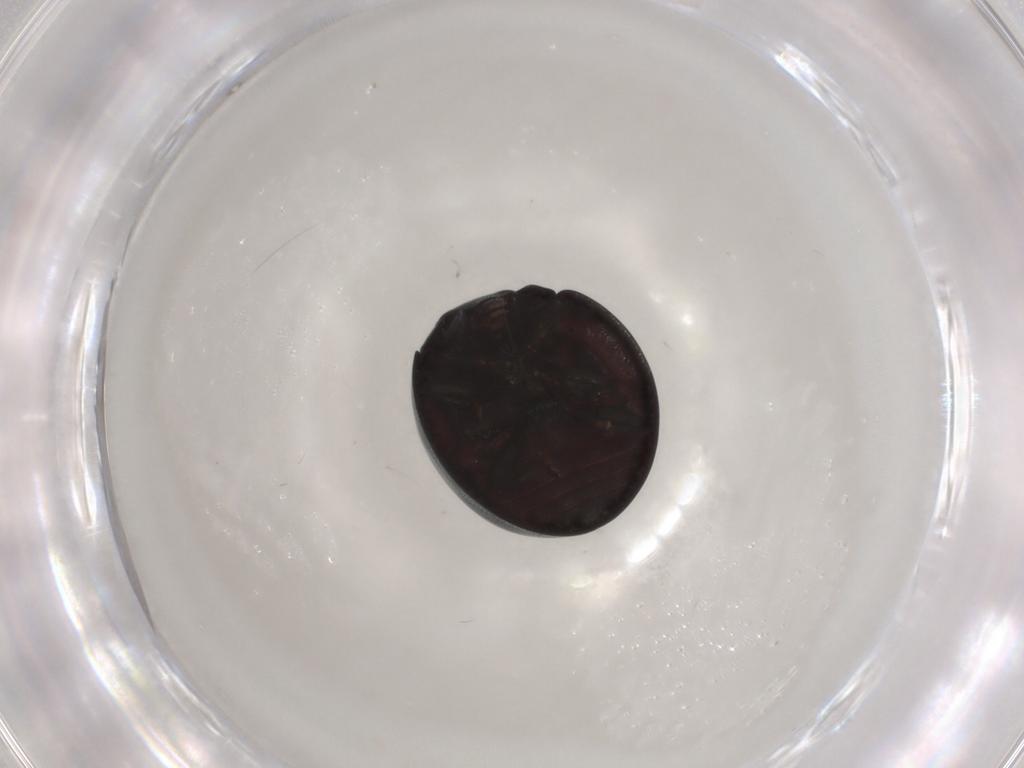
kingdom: Animalia
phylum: Arthropoda
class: Insecta
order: Coleoptera
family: Coccinellidae
